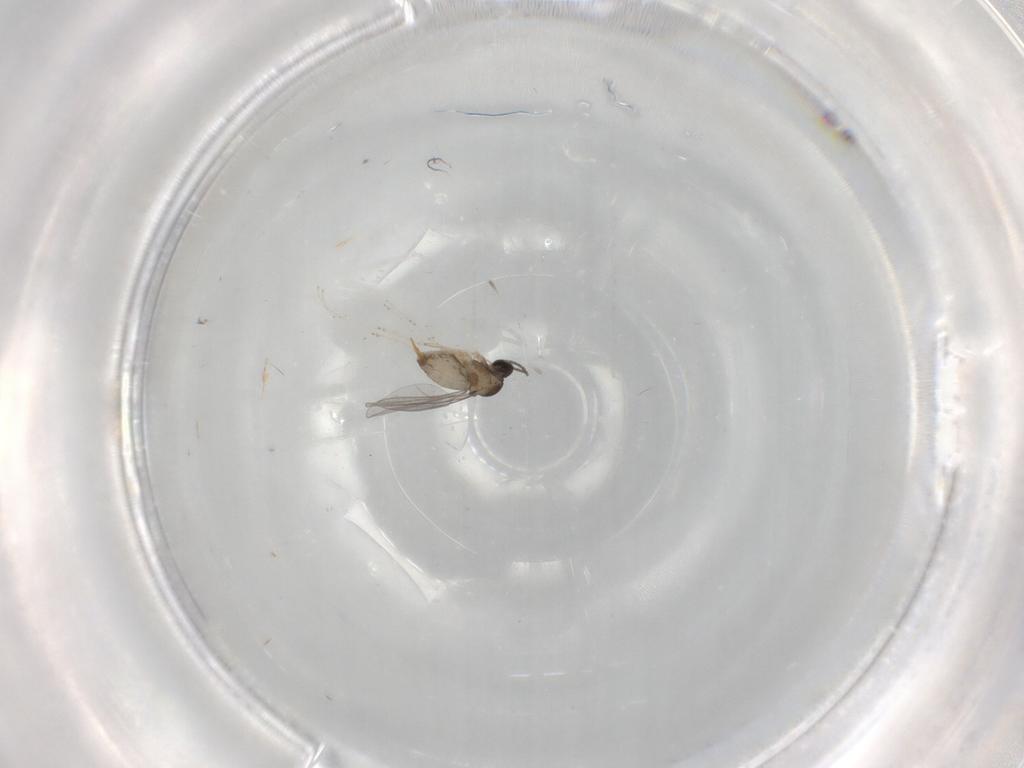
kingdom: Animalia
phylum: Arthropoda
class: Insecta
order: Diptera
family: Cecidomyiidae
